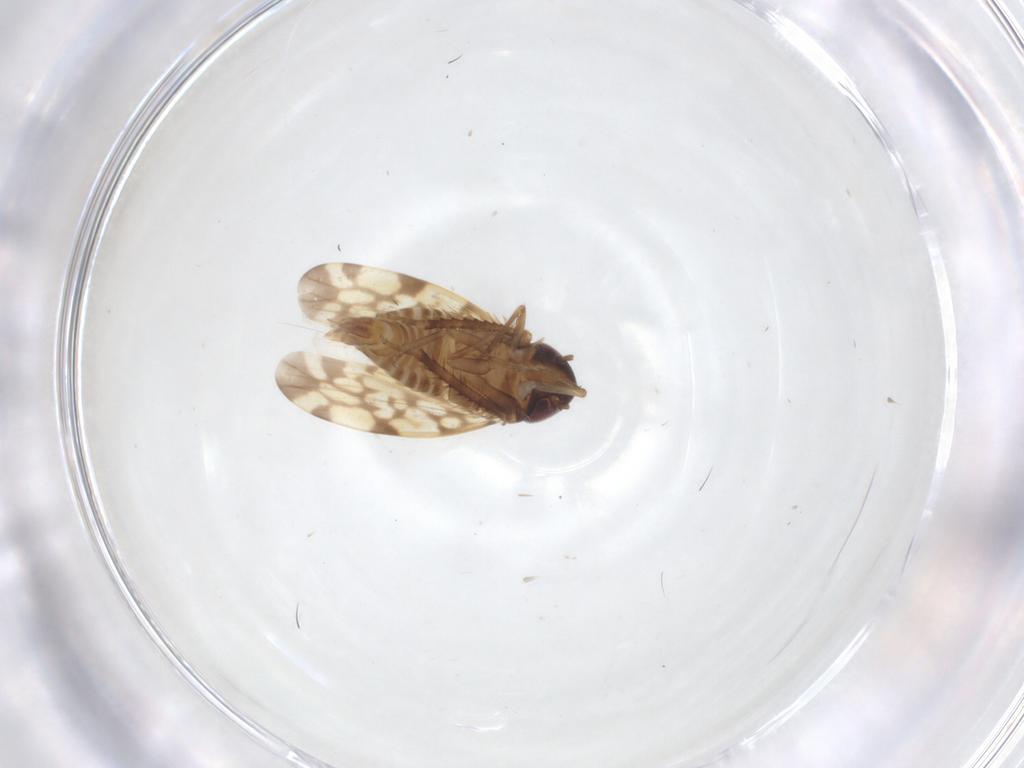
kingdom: Animalia
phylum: Arthropoda
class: Insecta
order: Hemiptera
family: Cicadellidae
